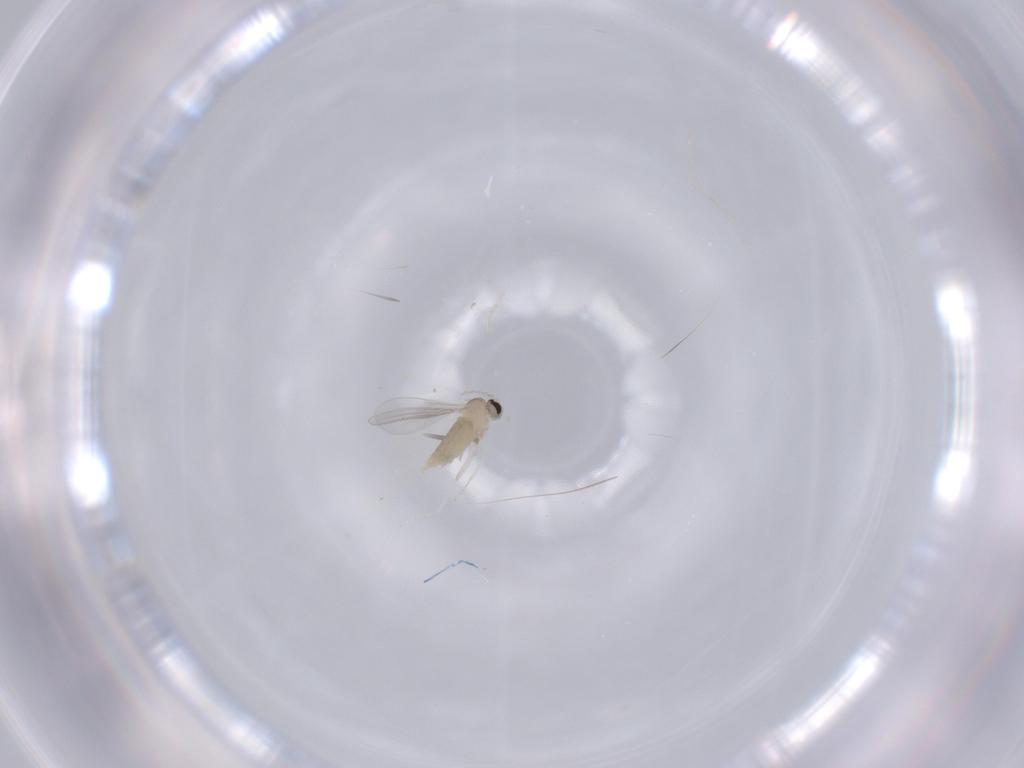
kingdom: Animalia
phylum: Arthropoda
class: Insecta
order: Diptera
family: Cecidomyiidae
